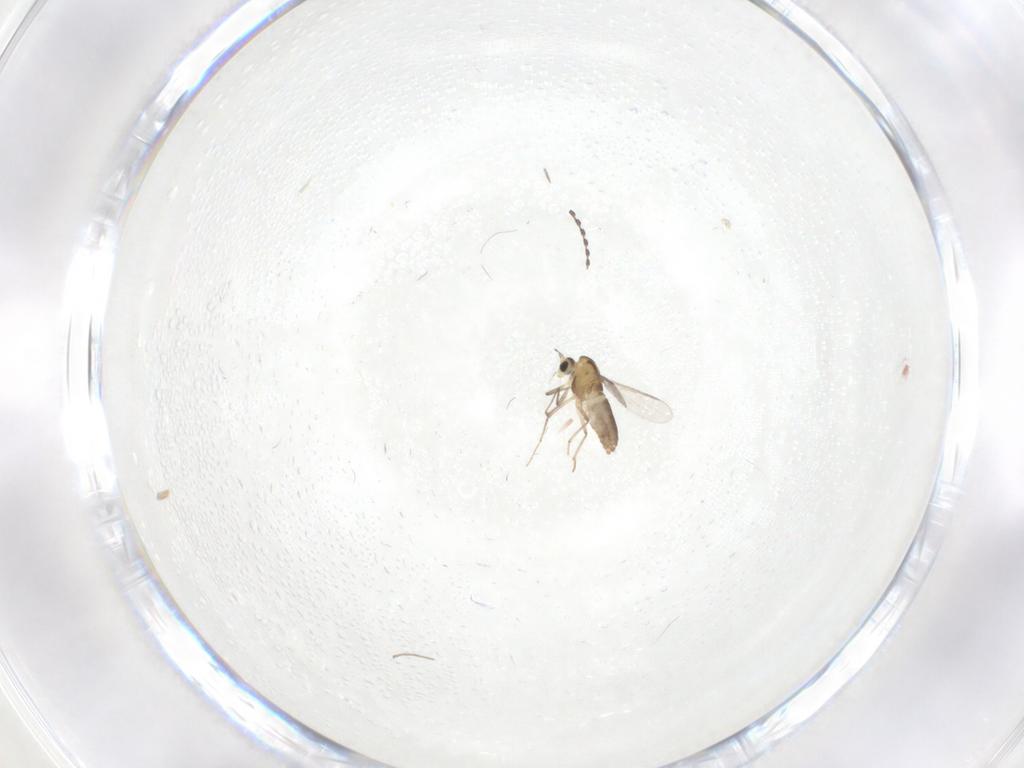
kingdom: Animalia
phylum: Arthropoda
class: Insecta
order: Diptera
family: Chironomidae
